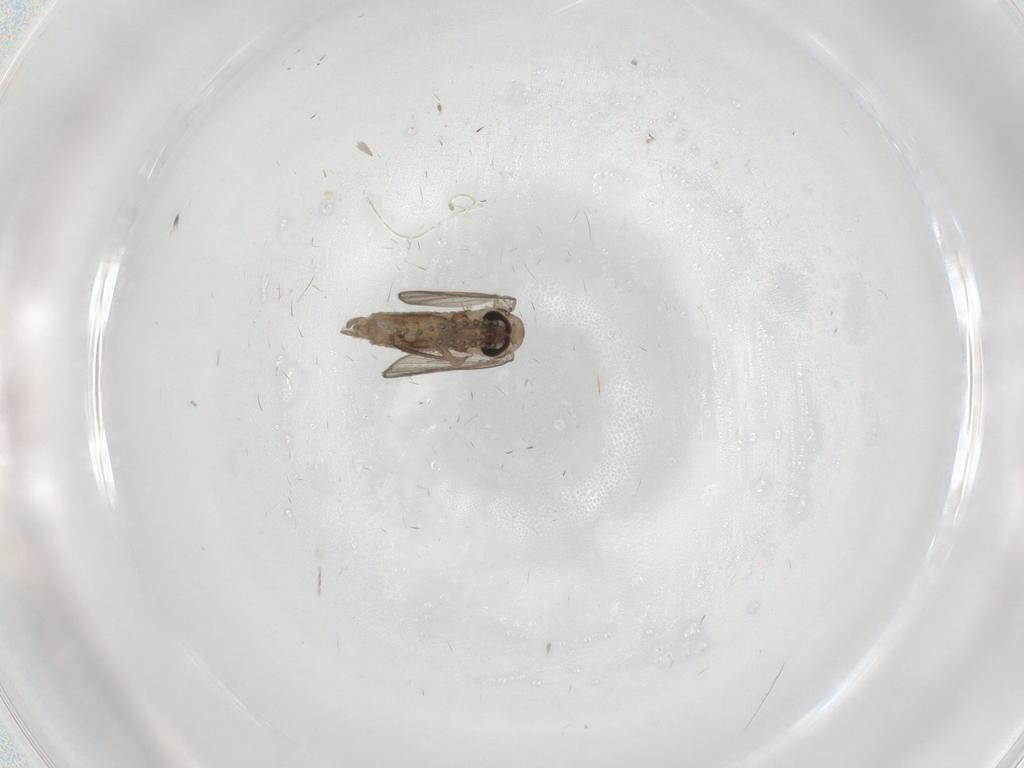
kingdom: Animalia
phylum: Arthropoda
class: Insecta
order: Diptera
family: Psychodidae
